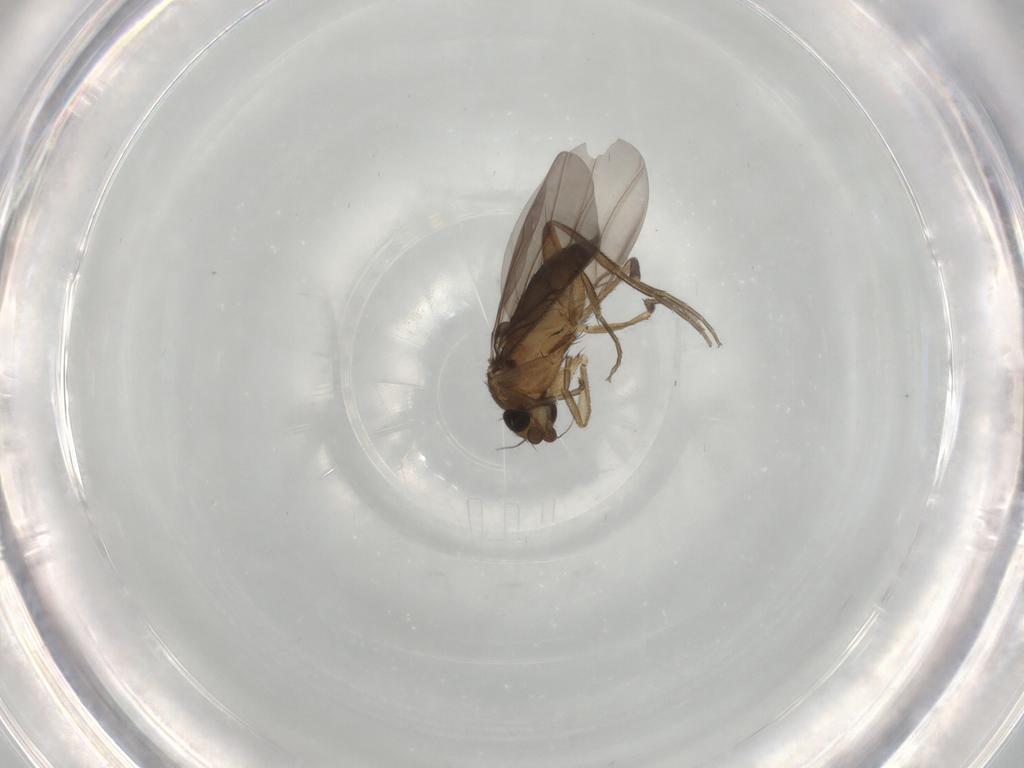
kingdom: Animalia
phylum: Arthropoda
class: Insecta
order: Diptera
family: Phoridae
